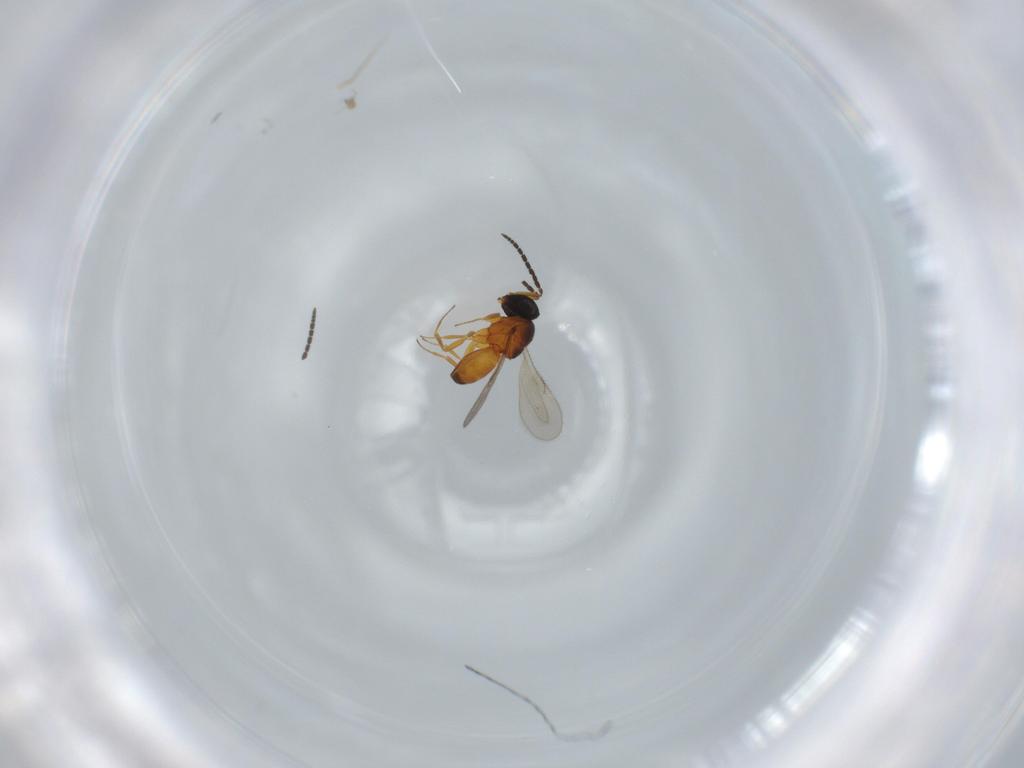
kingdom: Animalia
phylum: Arthropoda
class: Insecta
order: Hymenoptera
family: Scelionidae
